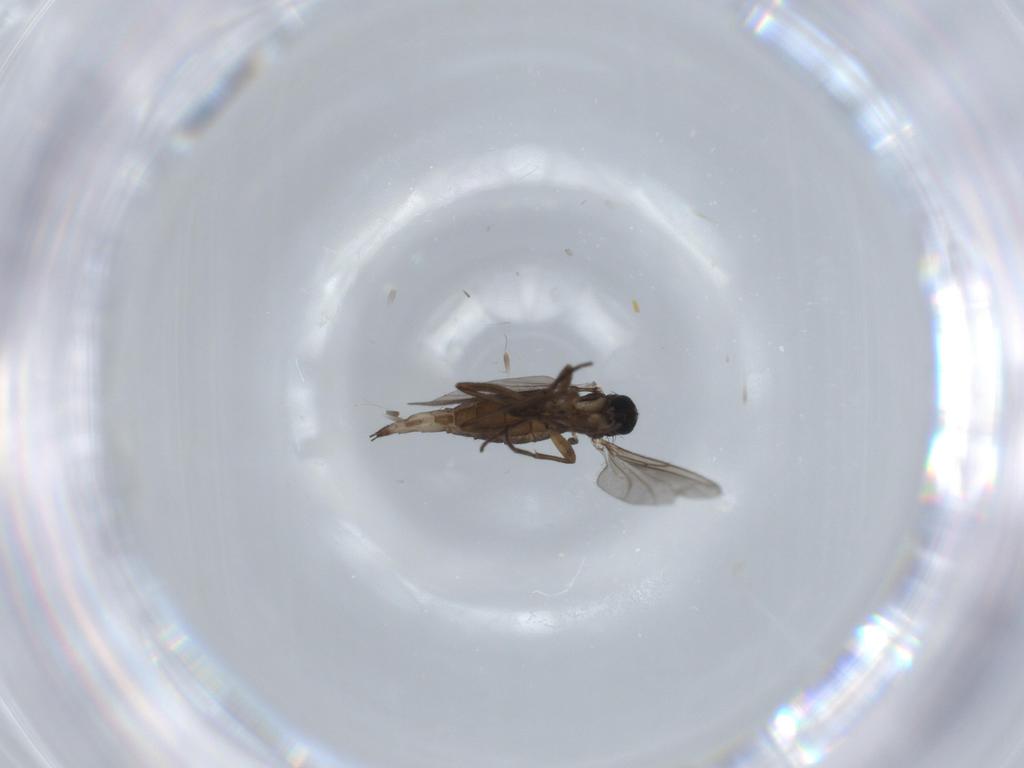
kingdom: Animalia
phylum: Arthropoda
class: Insecta
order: Diptera
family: Sciaridae
